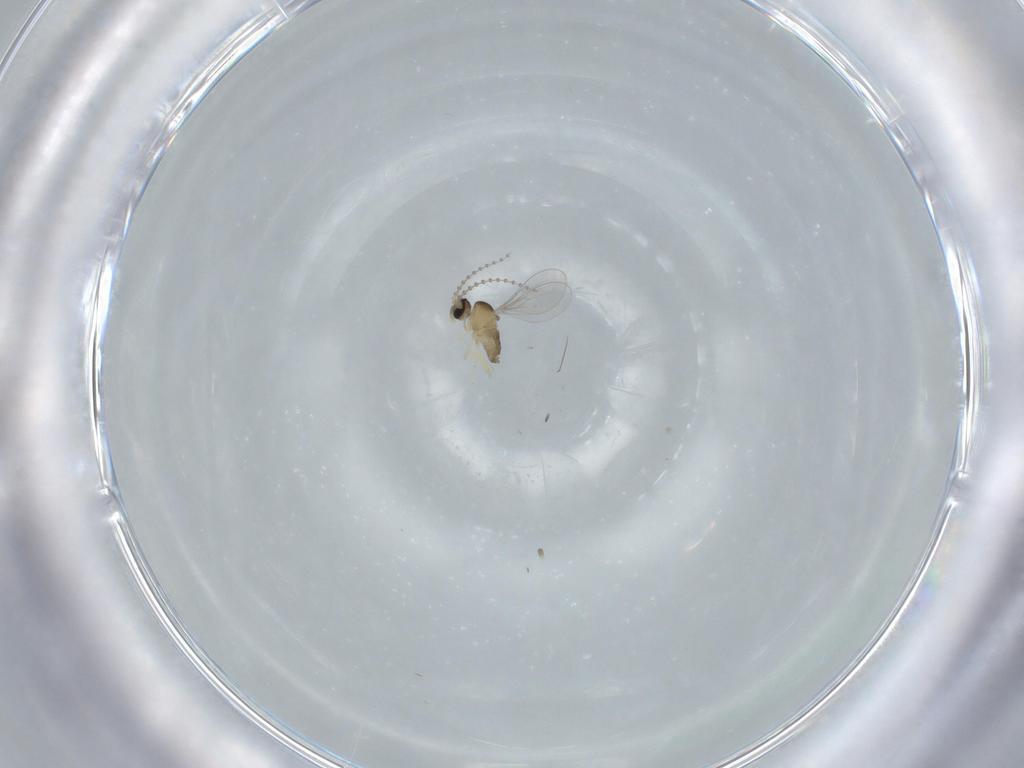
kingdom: Animalia
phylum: Arthropoda
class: Insecta
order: Diptera
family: Cecidomyiidae
